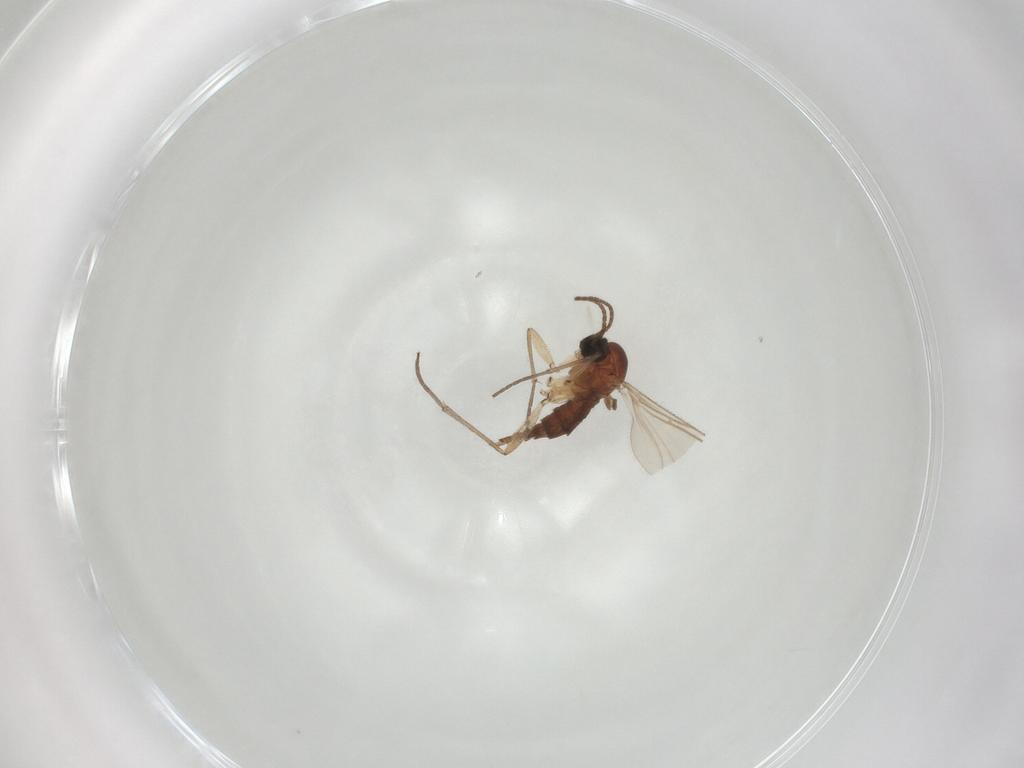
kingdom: Animalia
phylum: Arthropoda
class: Insecta
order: Diptera
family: Sciaridae
